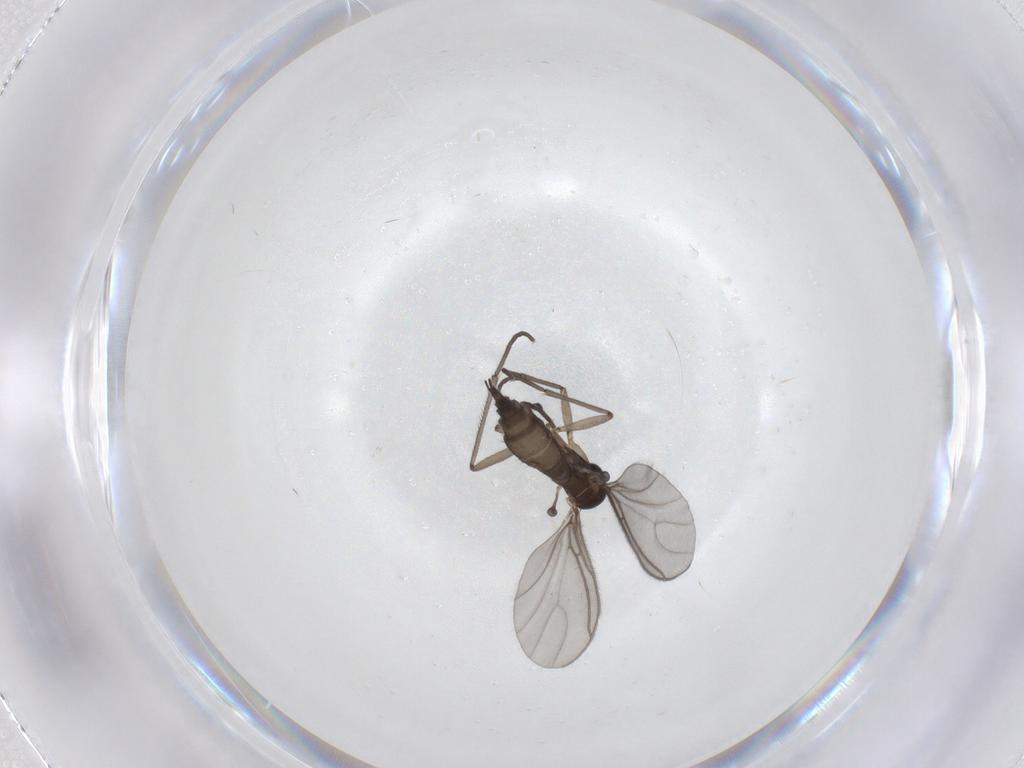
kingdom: Animalia
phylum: Arthropoda
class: Insecta
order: Diptera
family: Sciaridae
